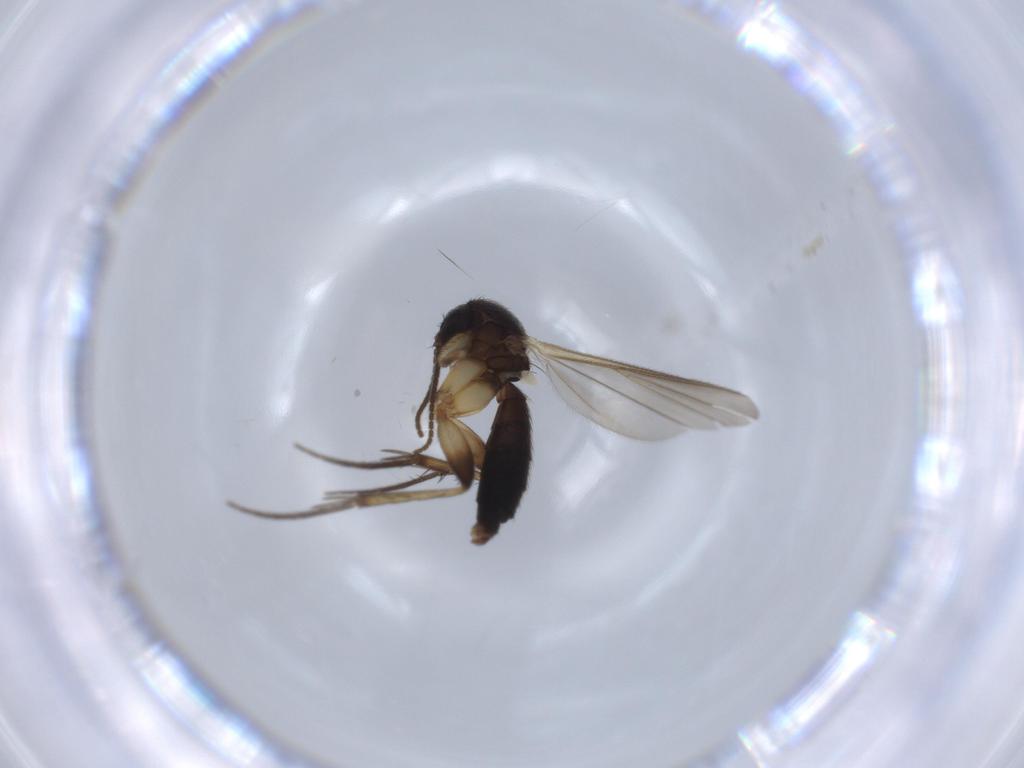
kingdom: Animalia
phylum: Arthropoda
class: Insecta
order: Diptera
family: Mycetophilidae
